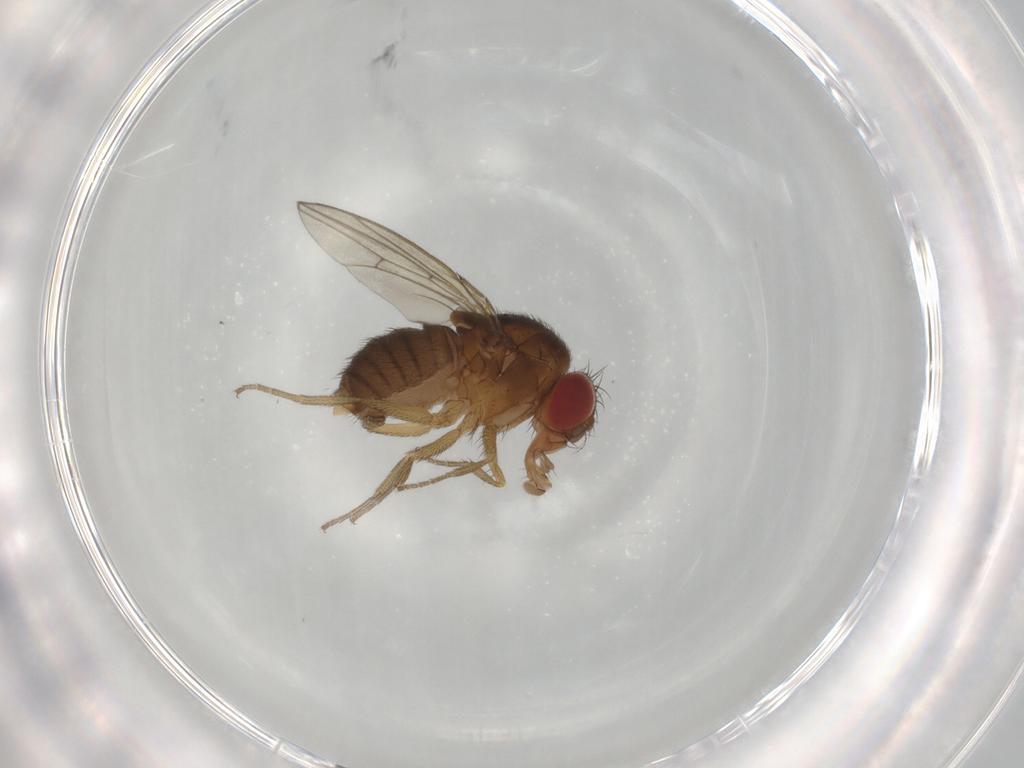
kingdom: Animalia
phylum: Arthropoda
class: Insecta
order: Diptera
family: Drosophilidae
